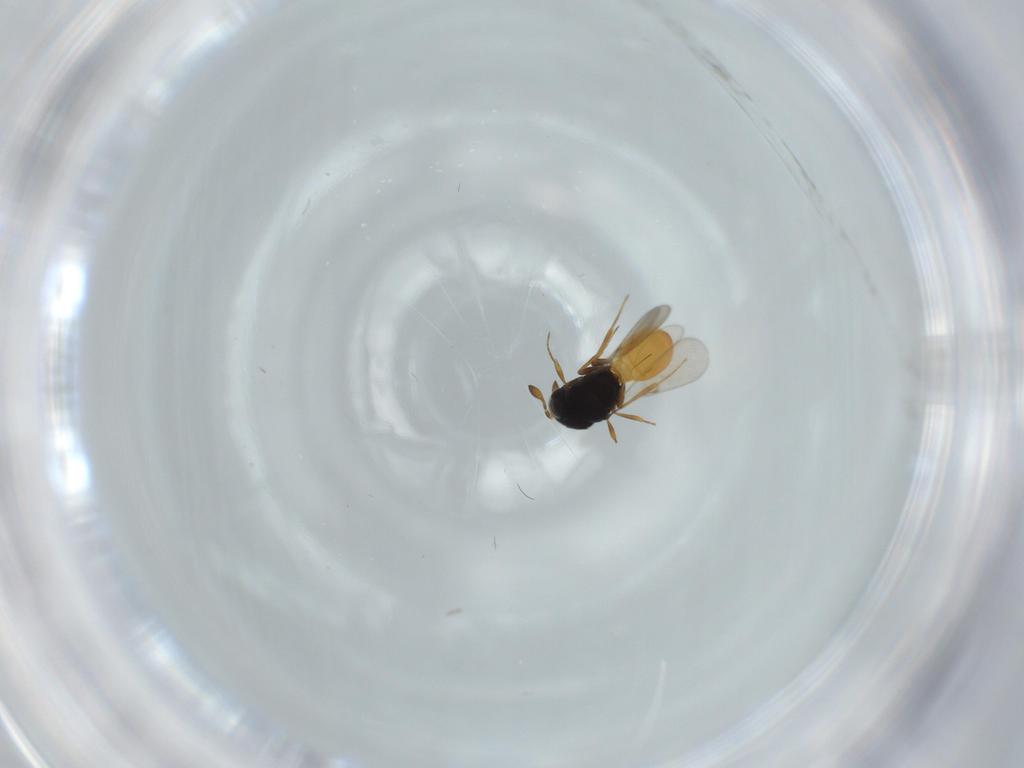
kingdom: Animalia
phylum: Arthropoda
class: Insecta
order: Hymenoptera
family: Scelionidae
